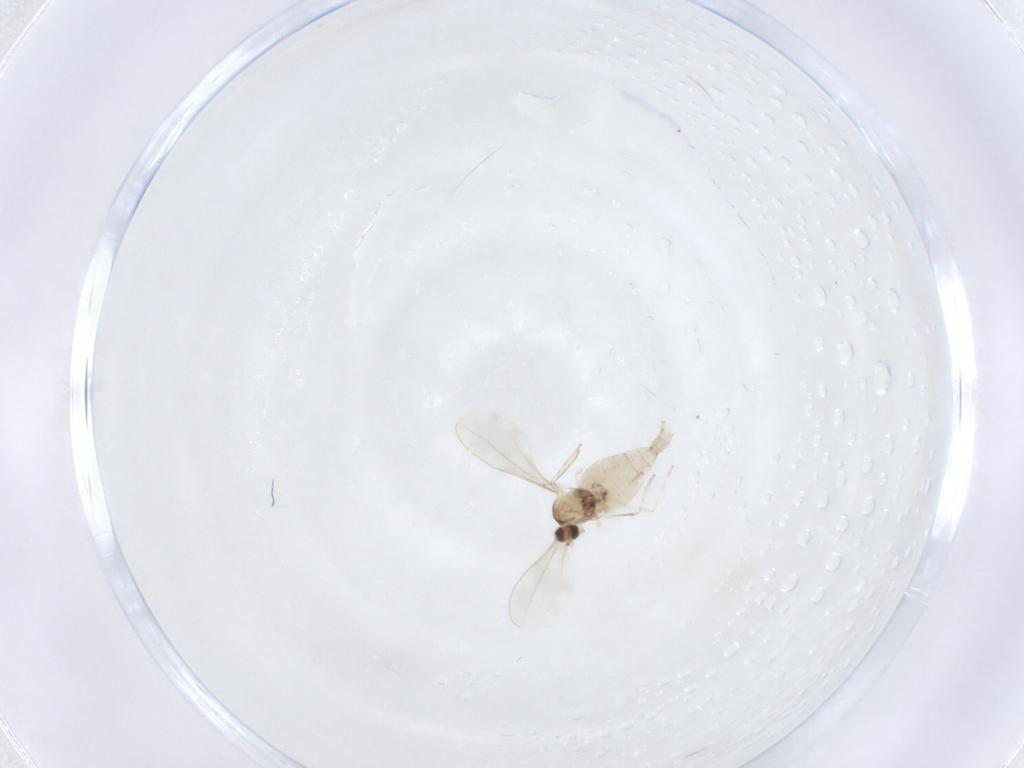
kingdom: Animalia
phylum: Arthropoda
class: Insecta
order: Diptera
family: Cecidomyiidae
